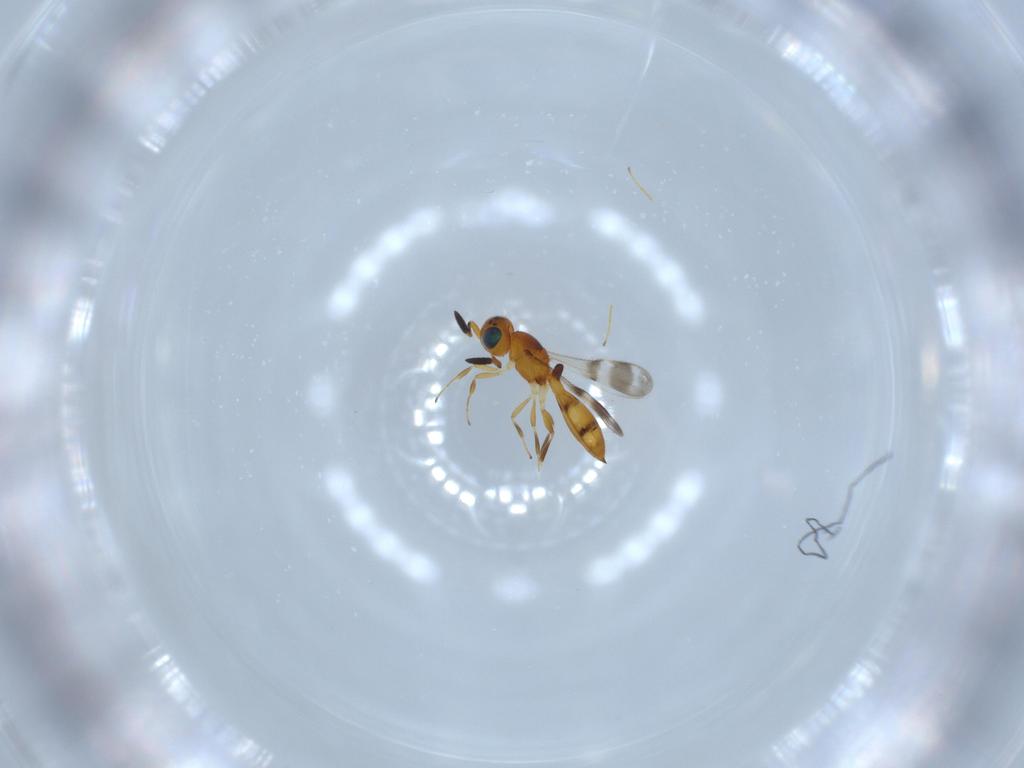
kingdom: Animalia
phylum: Arthropoda
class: Insecta
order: Hymenoptera
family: Scelionidae
